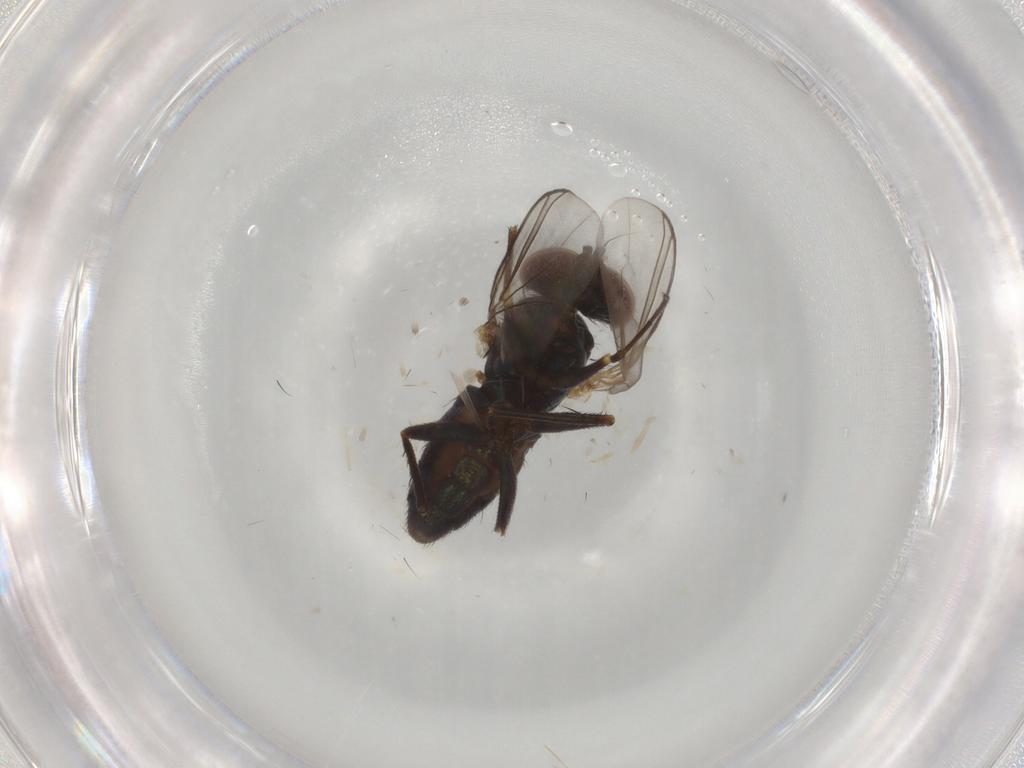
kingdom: Animalia
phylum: Arthropoda
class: Insecta
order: Diptera
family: Dolichopodidae
